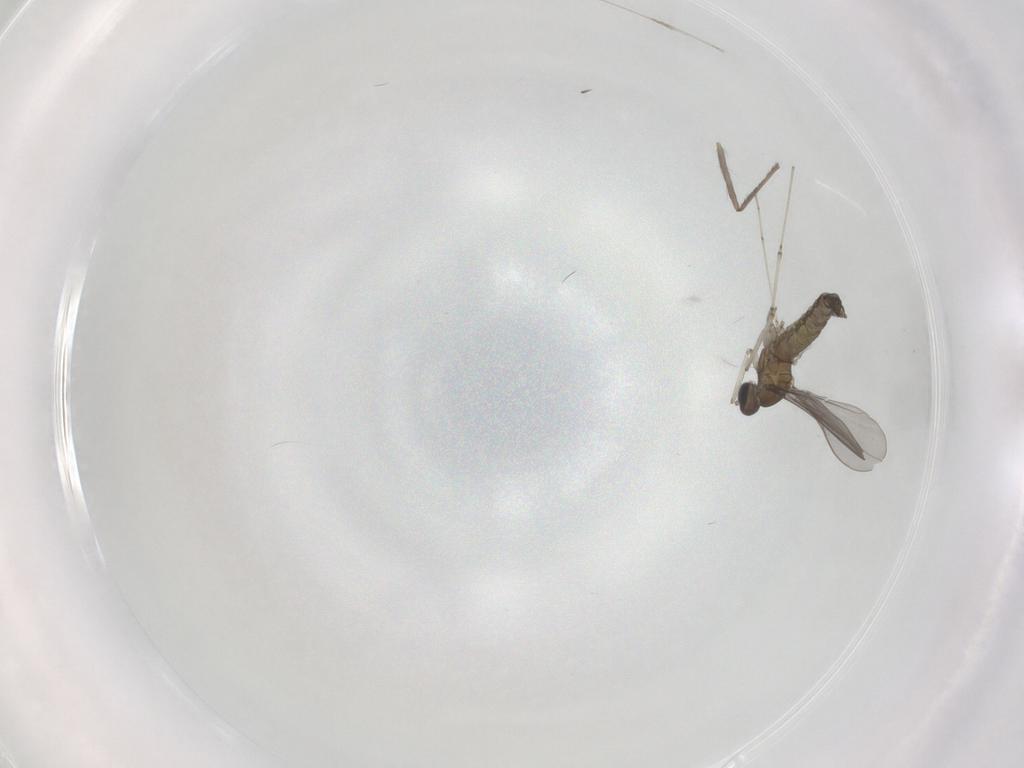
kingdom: Animalia
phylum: Arthropoda
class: Insecta
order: Diptera
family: Cecidomyiidae
